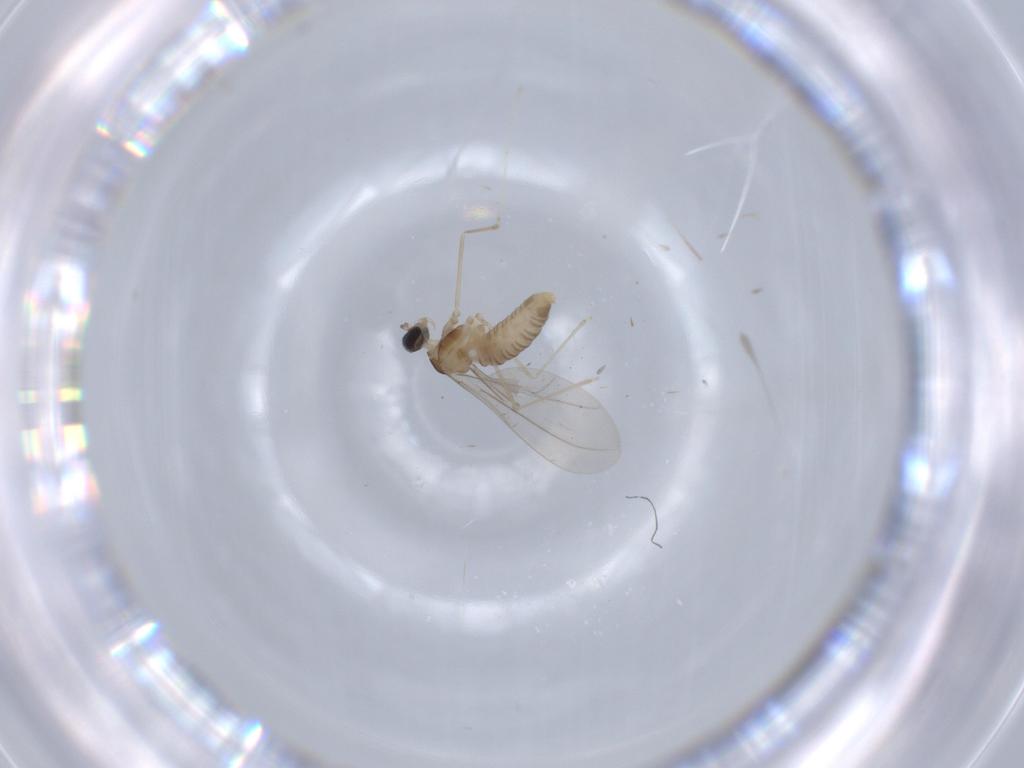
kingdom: Animalia
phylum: Arthropoda
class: Insecta
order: Diptera
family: Cecidomyiidae
